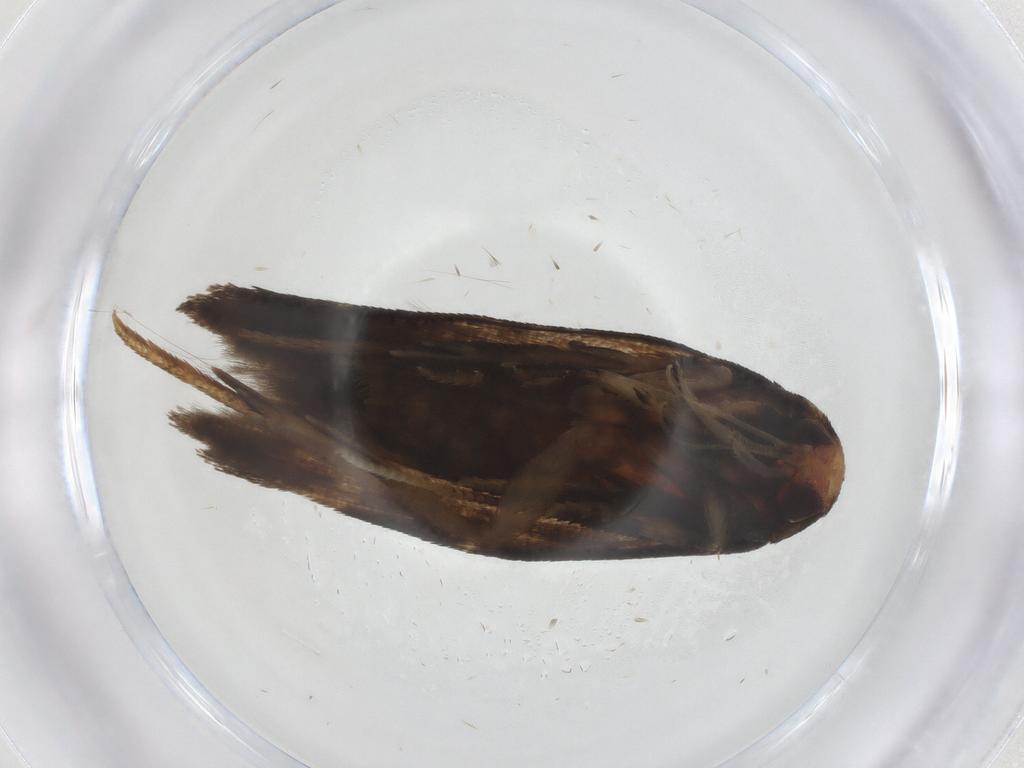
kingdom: Animalia
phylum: Arthropoda
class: Insecta
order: Lepidoptera
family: Oecophoridae
